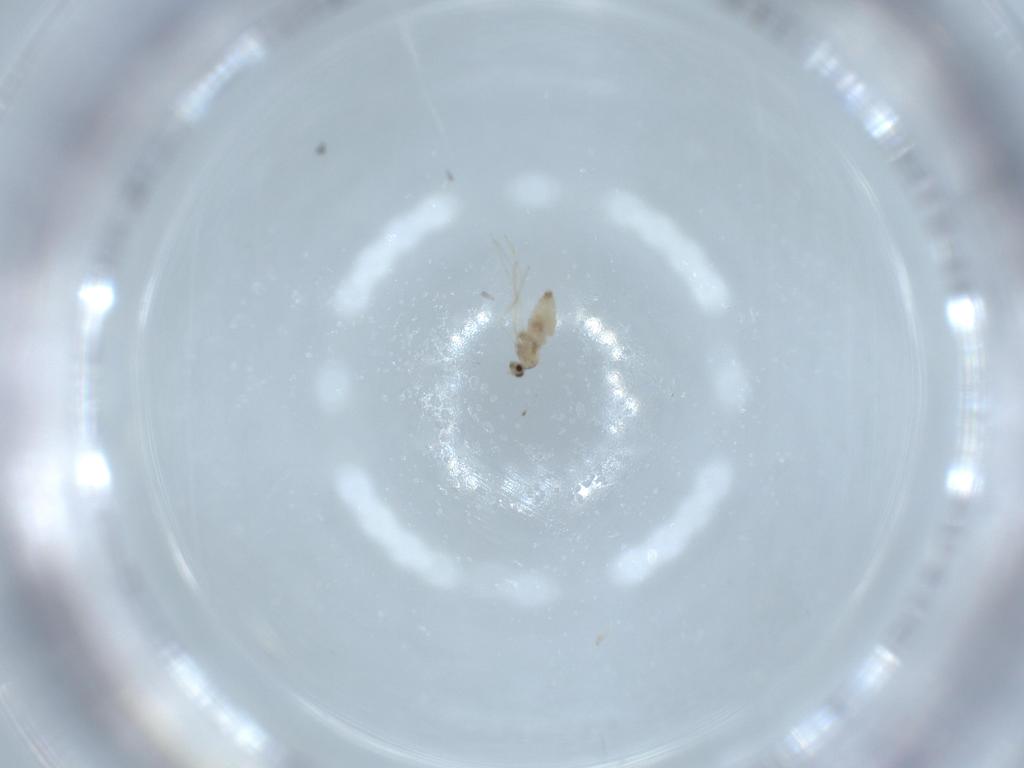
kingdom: Animalia
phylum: Arthropoda
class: Insecta
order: Diptera
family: Cecidomyiidae
